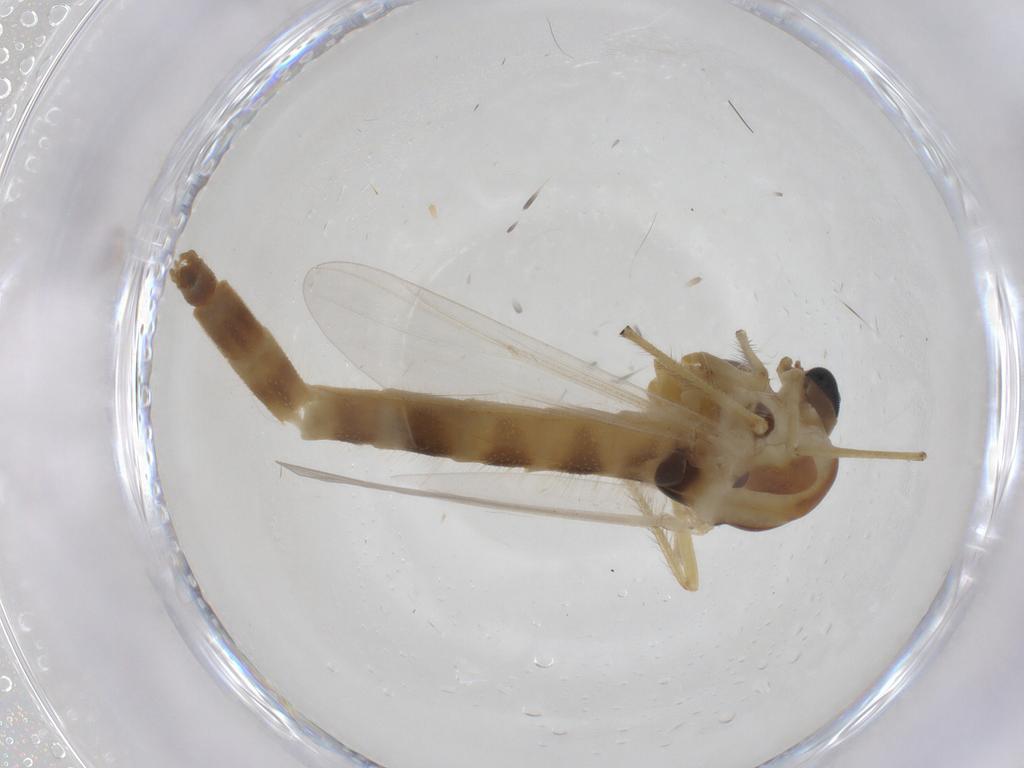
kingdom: Animalia
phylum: Arthropoda
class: Insecta
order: Diptera
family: Chironomidae
